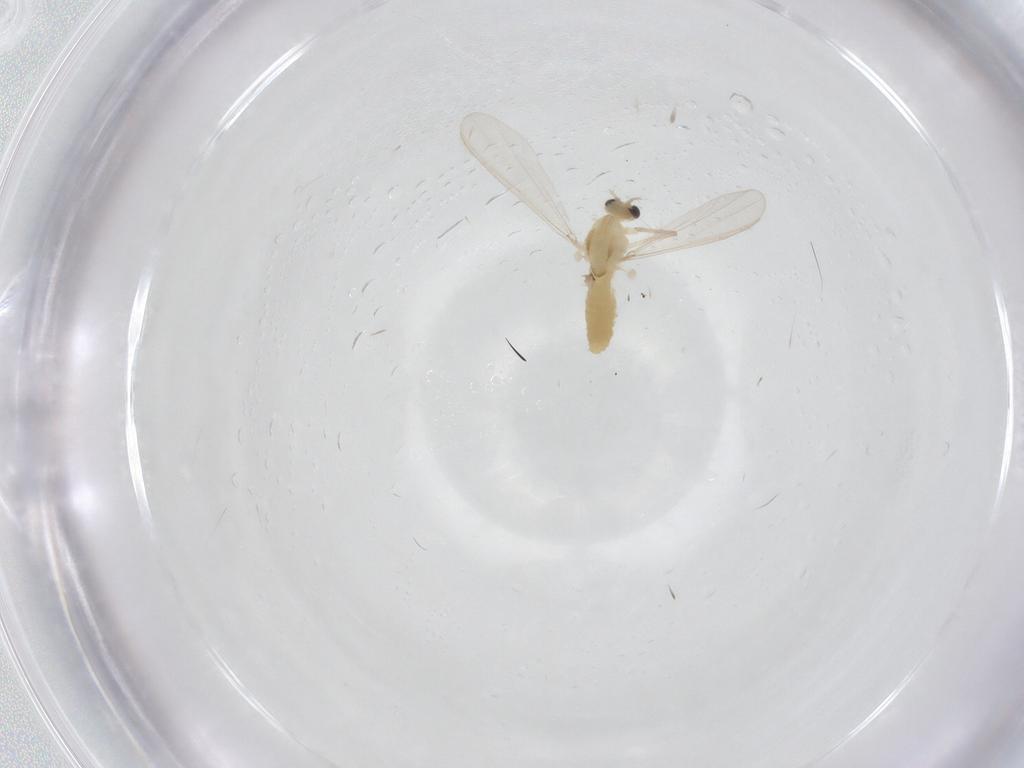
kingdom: Animalia
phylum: Arthropoda
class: Insecta
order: Diptera
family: Chironomidae
